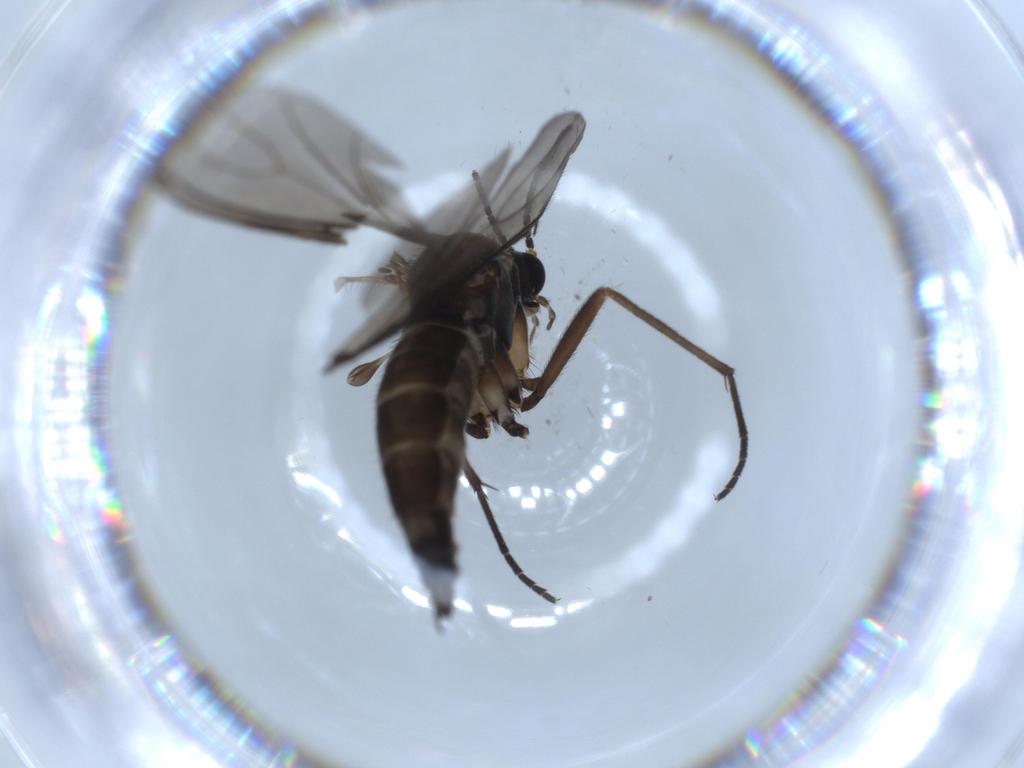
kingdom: Animalia
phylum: Arthropoda
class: Insecta
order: Diptera
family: Sciaridae
